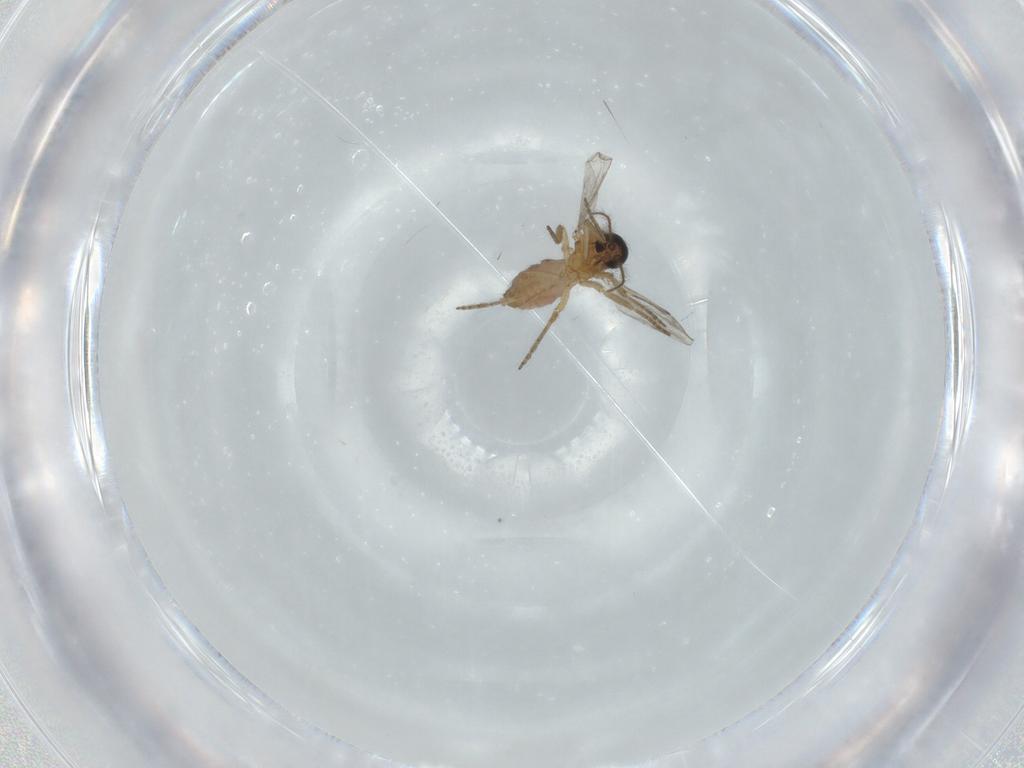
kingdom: Animalia
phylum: Arthropoda
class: Insecta
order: Diptera
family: Ceratopogonidae
